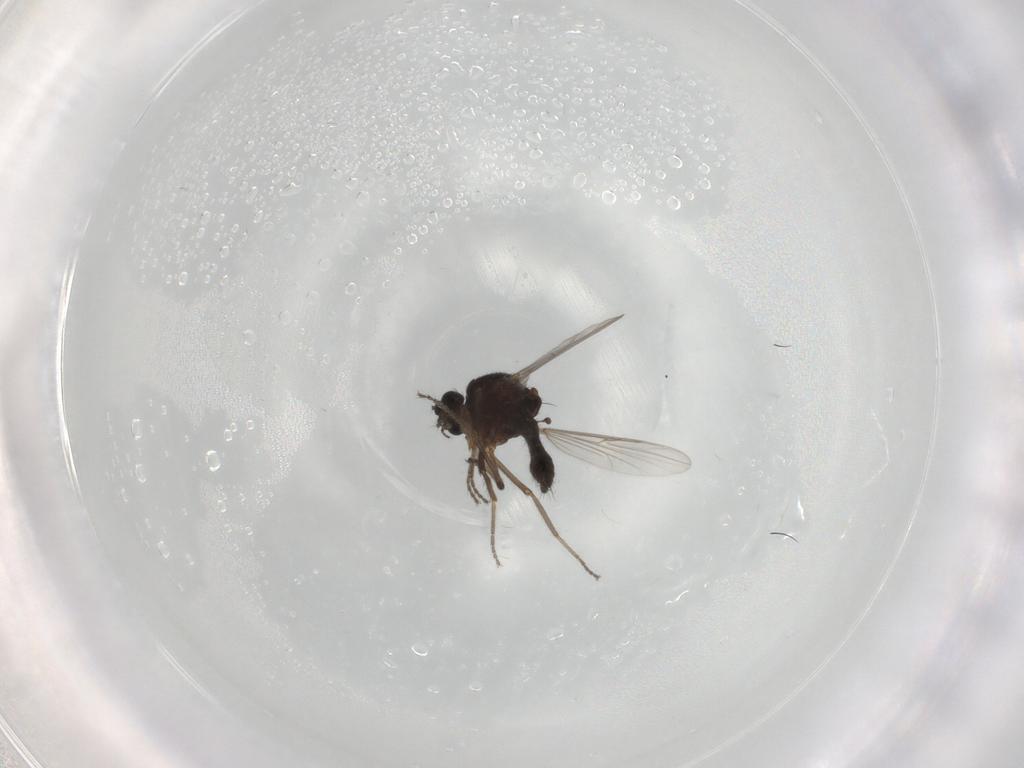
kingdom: Animalia
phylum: Arthropoda
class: Insecta
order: Diptera
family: Ceratopogonidae
